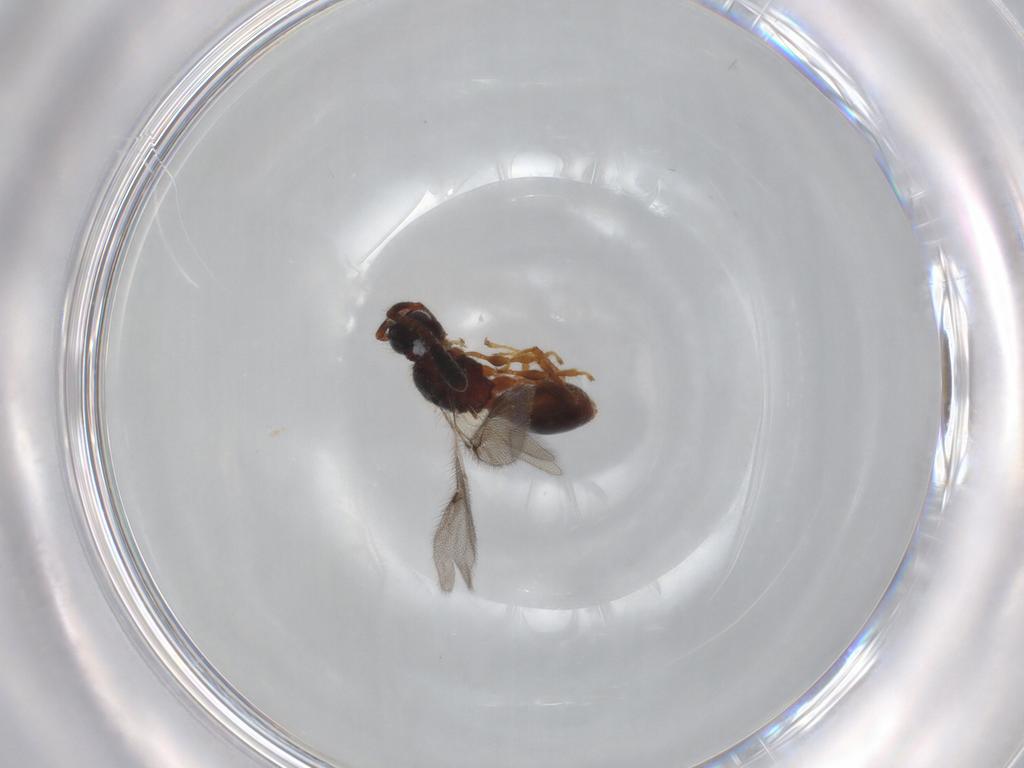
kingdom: Animalia
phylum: Arthropoda
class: Insecta
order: Hymenoptera
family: Diapriidae
